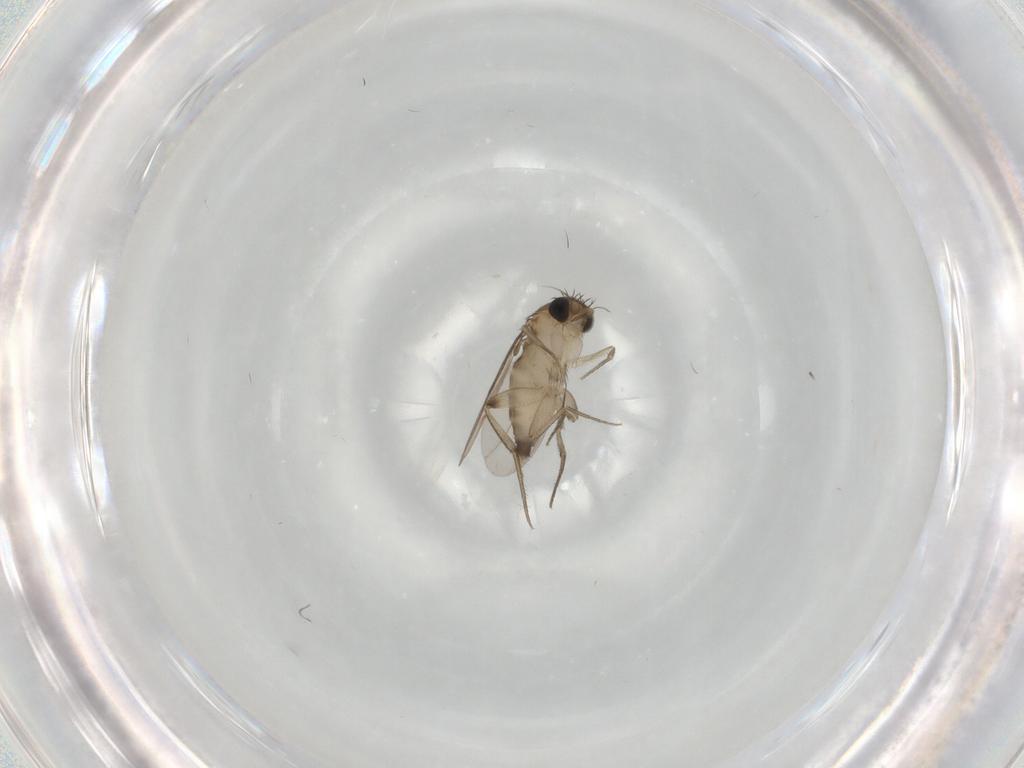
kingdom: Animalia
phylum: Arthropoda
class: Insecta
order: Diptera
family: Phoridae
